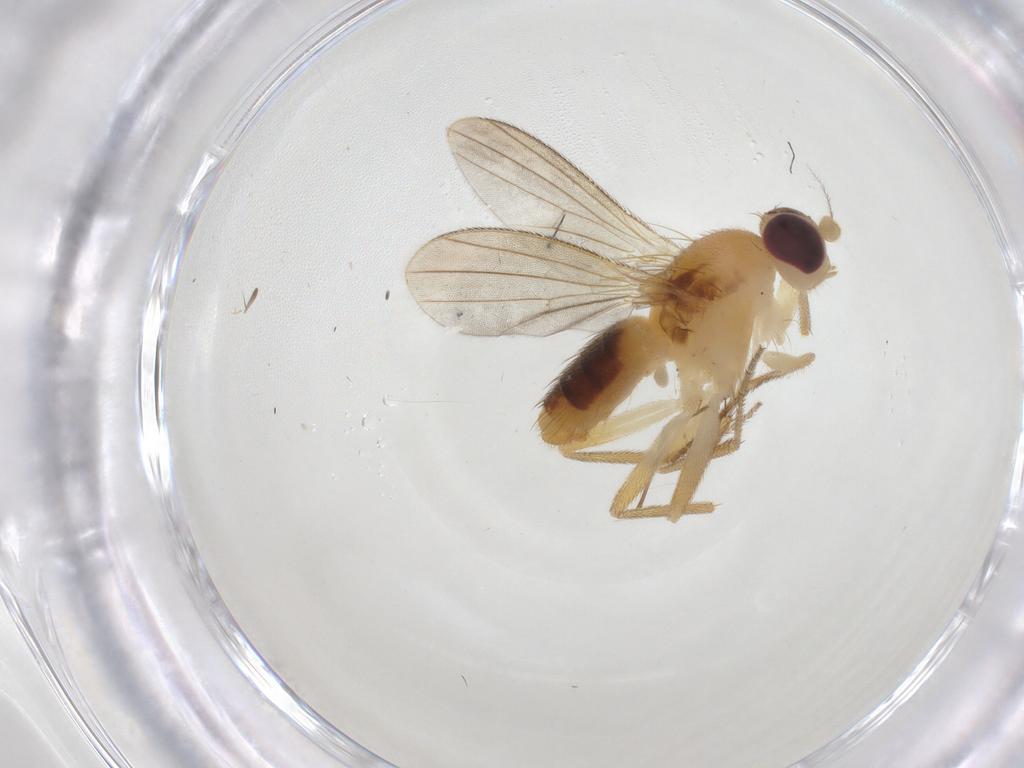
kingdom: Animalia
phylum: Arthropoda
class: Insecta
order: Diptera
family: Agromyzidae
